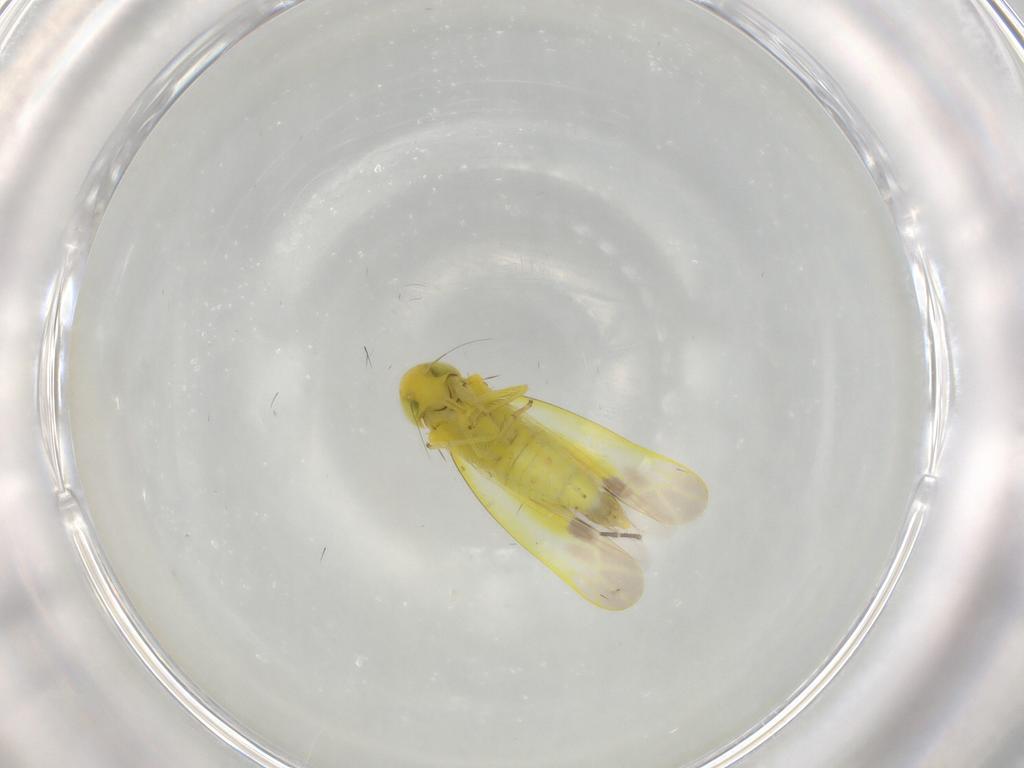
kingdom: Animalia
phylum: Arthropoda
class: Insecta
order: Hemiptera
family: Cicadellidae
